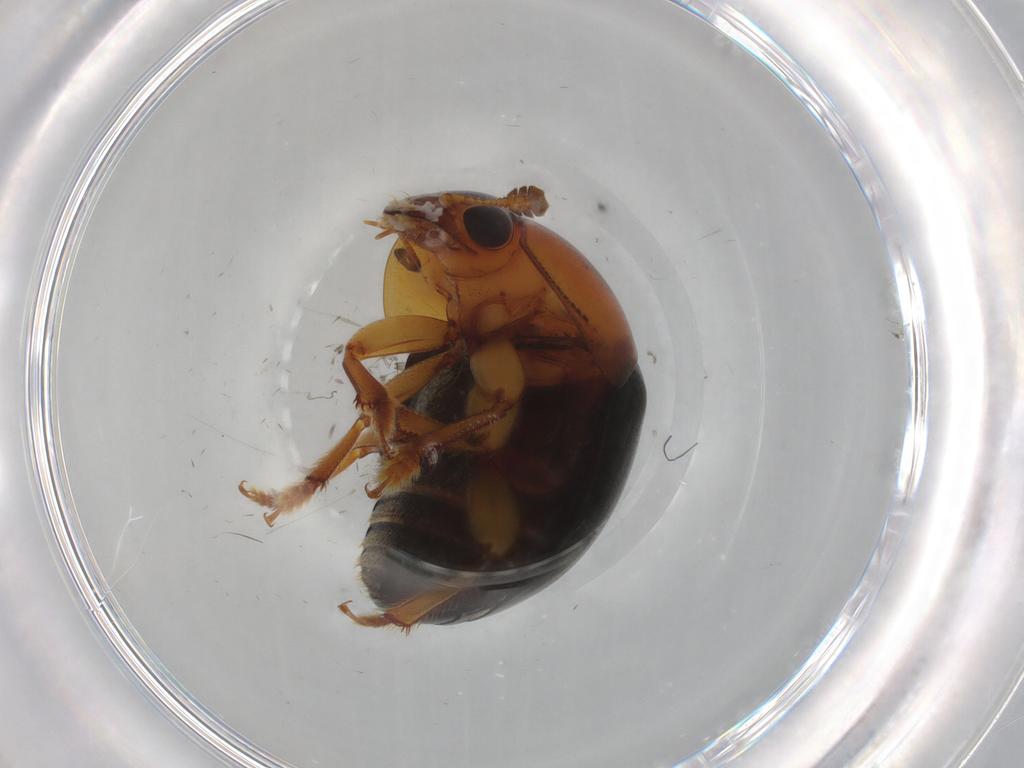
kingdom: Animalia
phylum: Arthropoda
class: Insecta
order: Coleoptera
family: Nitidulidae
